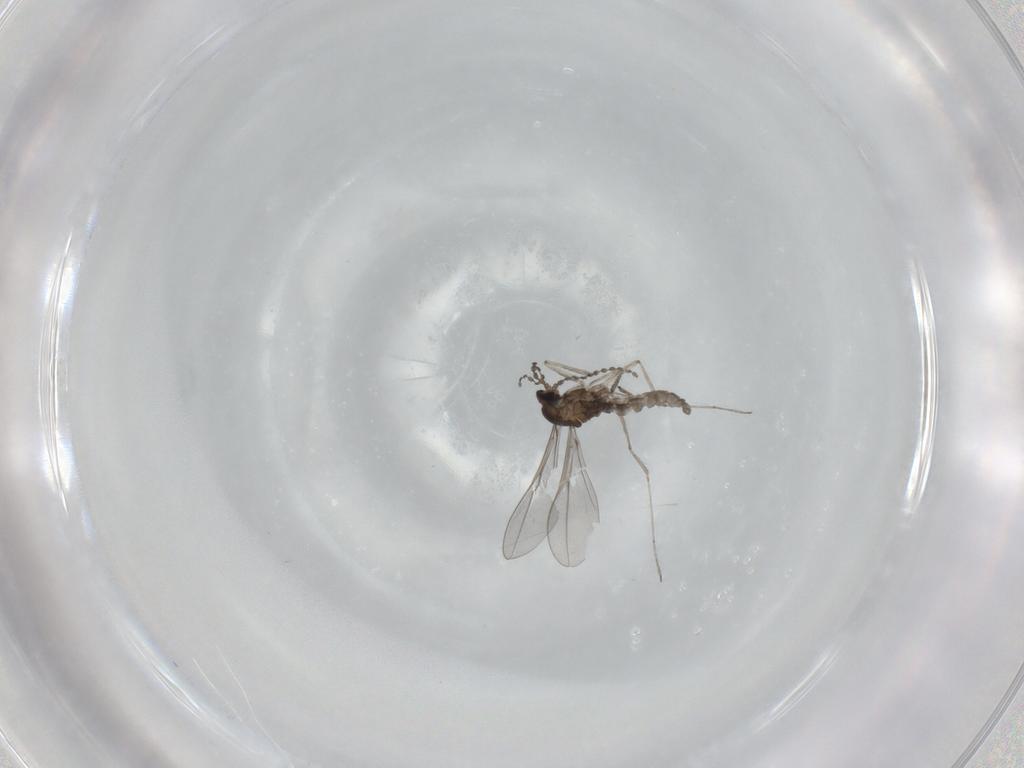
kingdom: Animalia
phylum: Arthropoda
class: Insecta
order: Diptera
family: Cecidomyiidae
